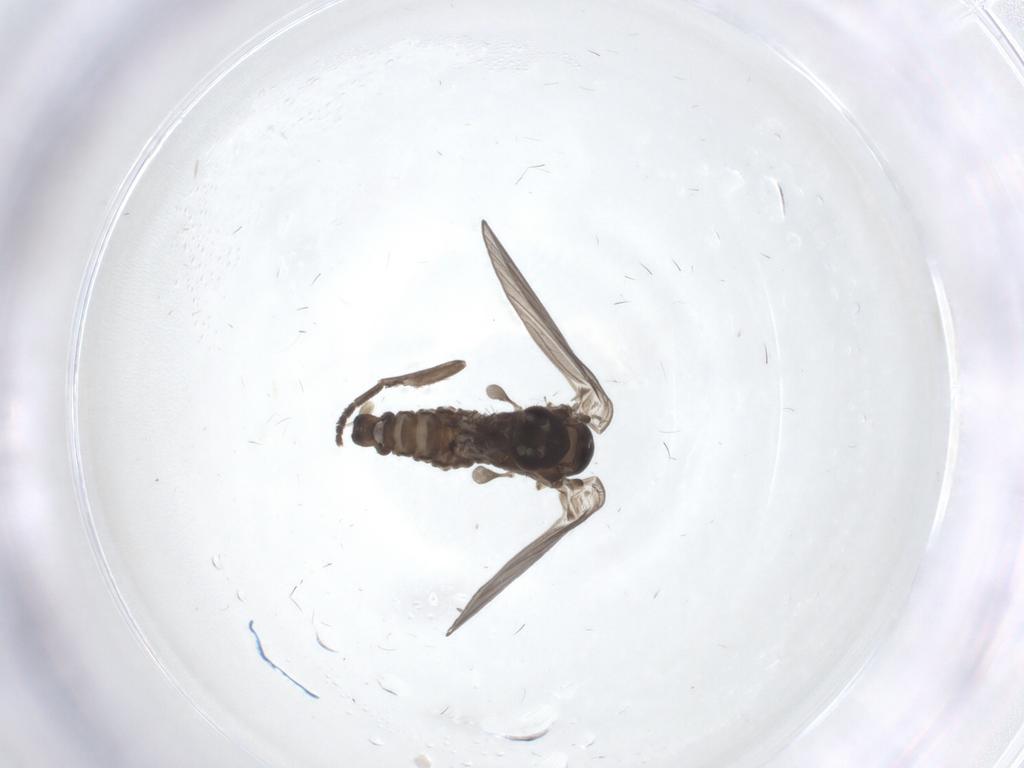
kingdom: Animalia
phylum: Arthropoda
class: Insecta
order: Diptera
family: Psychodidae
